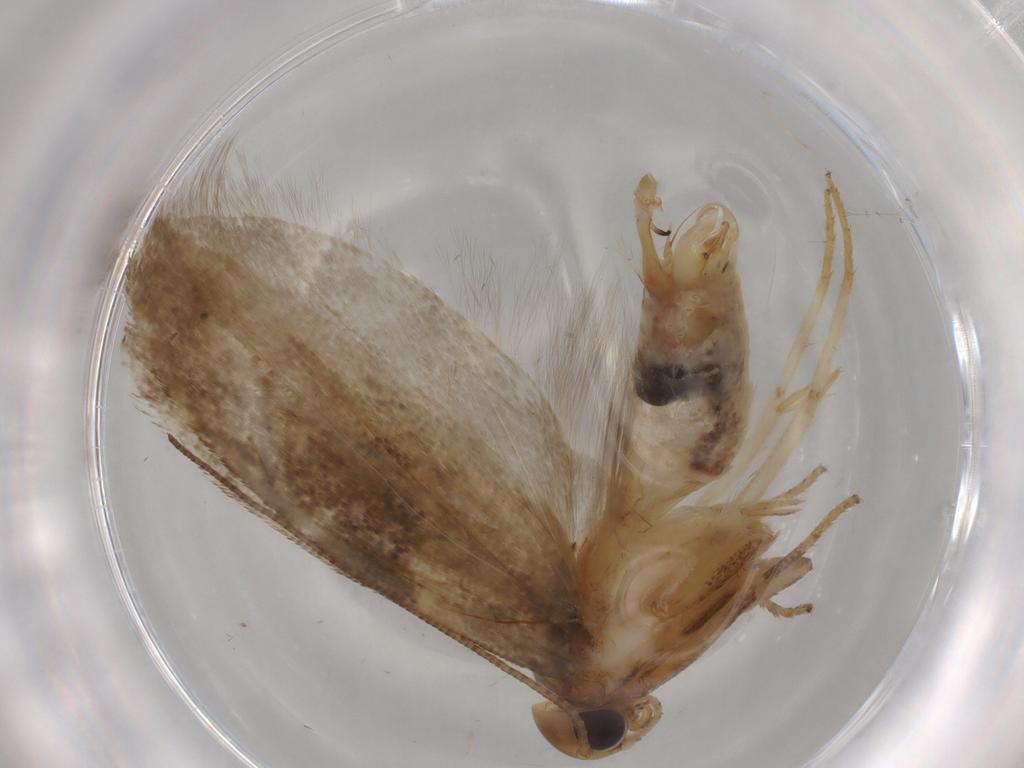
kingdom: Animalia
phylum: Arthropoda
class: Insecta
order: Lepidoptera
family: Gelechiidae
